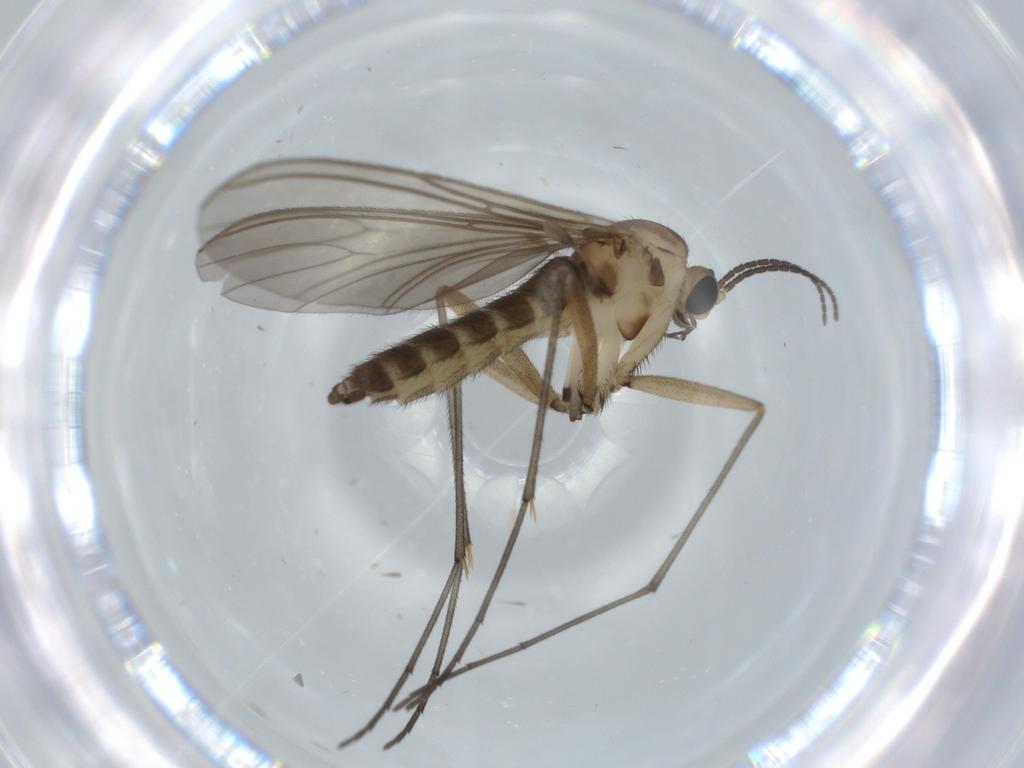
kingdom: Animalia
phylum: Arthropoda
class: Insecta
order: Diptera
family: Sciaridae
